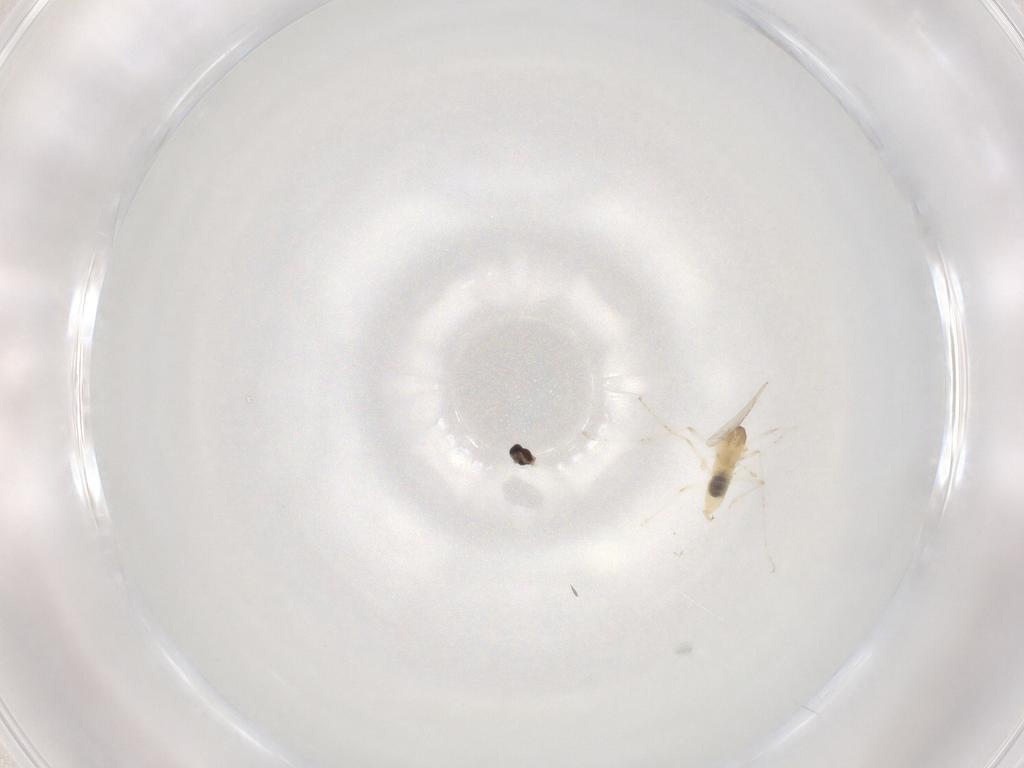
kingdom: Animalia
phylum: Arthropoda
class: Insecta
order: Diptera
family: Cecidomyiidae
